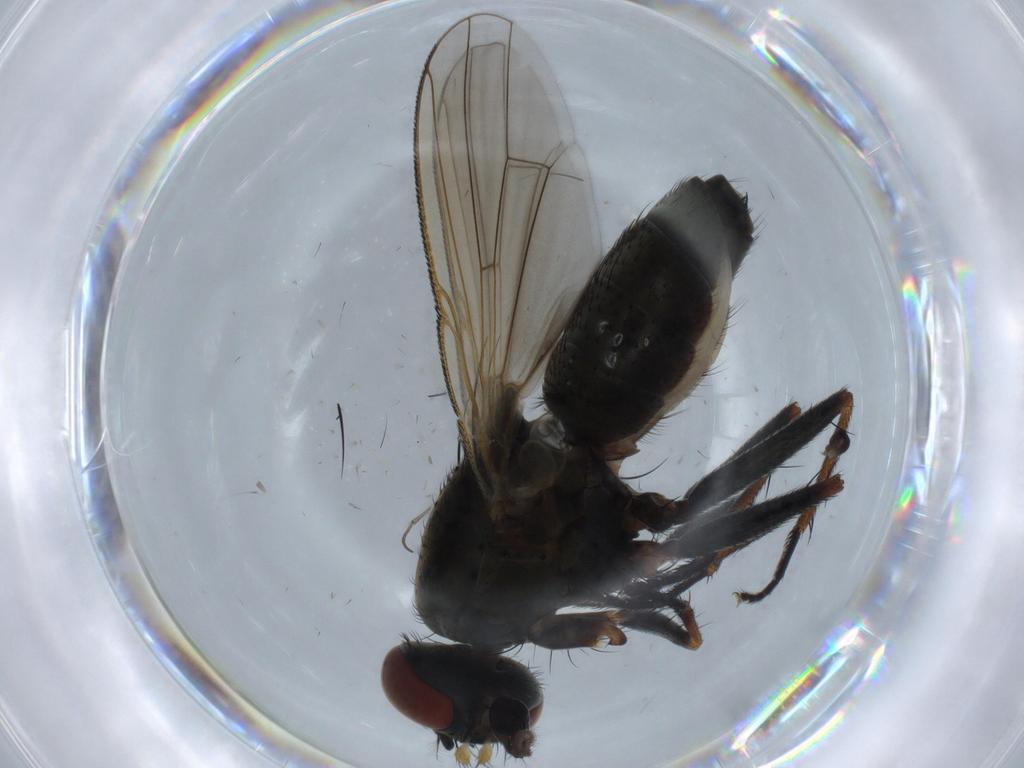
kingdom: Animalia
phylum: Arthropoda
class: Insecta
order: Diptera
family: Muscidae
